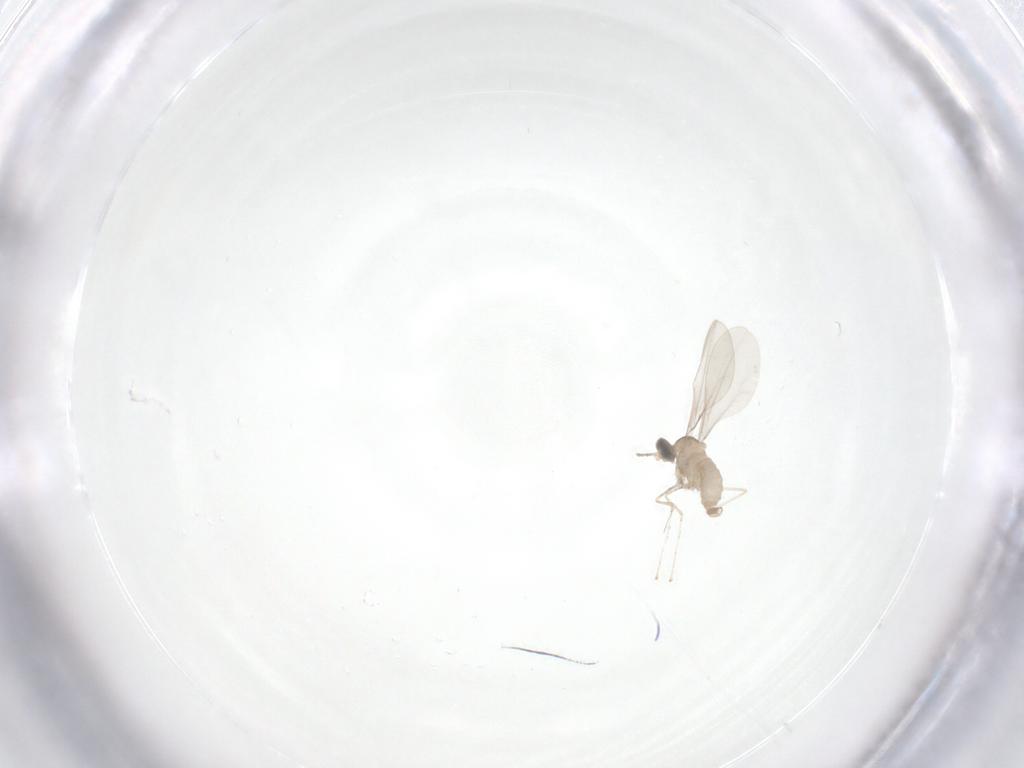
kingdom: Animalia
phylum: Arthropoda
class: Insecta
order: Diptera
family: Cecidomyiidae
